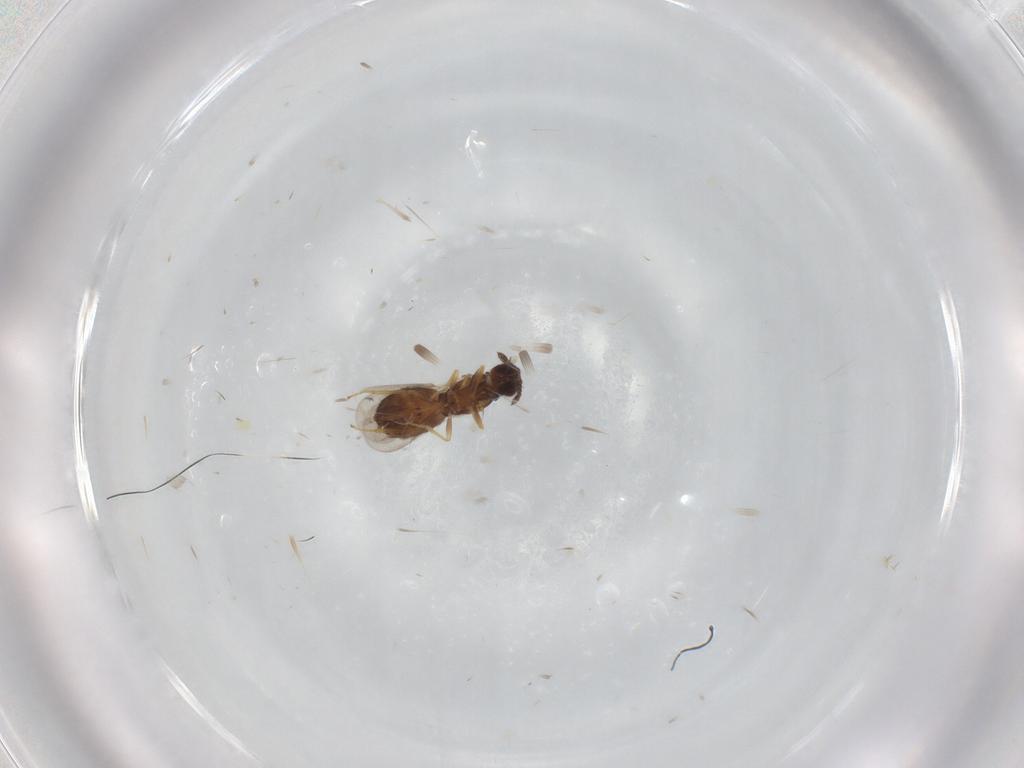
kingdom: Animalia
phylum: Arthropoda
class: Insecta
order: Hymenoptera
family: Eulophidae
